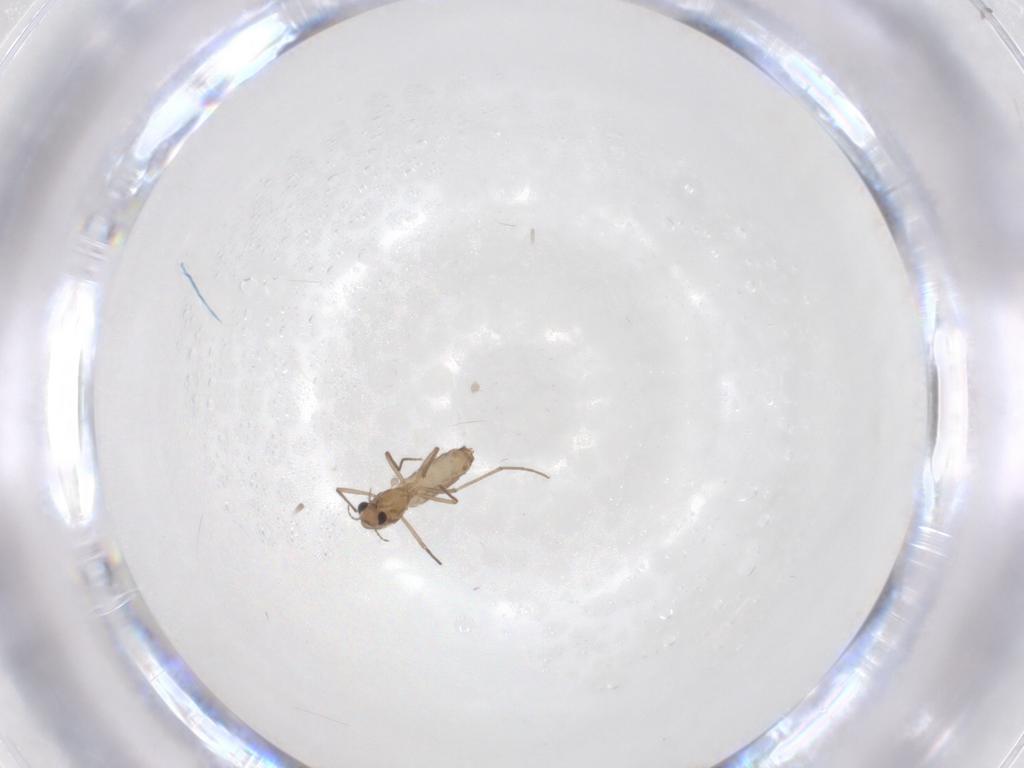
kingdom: Animalia
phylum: Arthropoda
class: Insecta
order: Diptera
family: Chironomidae
